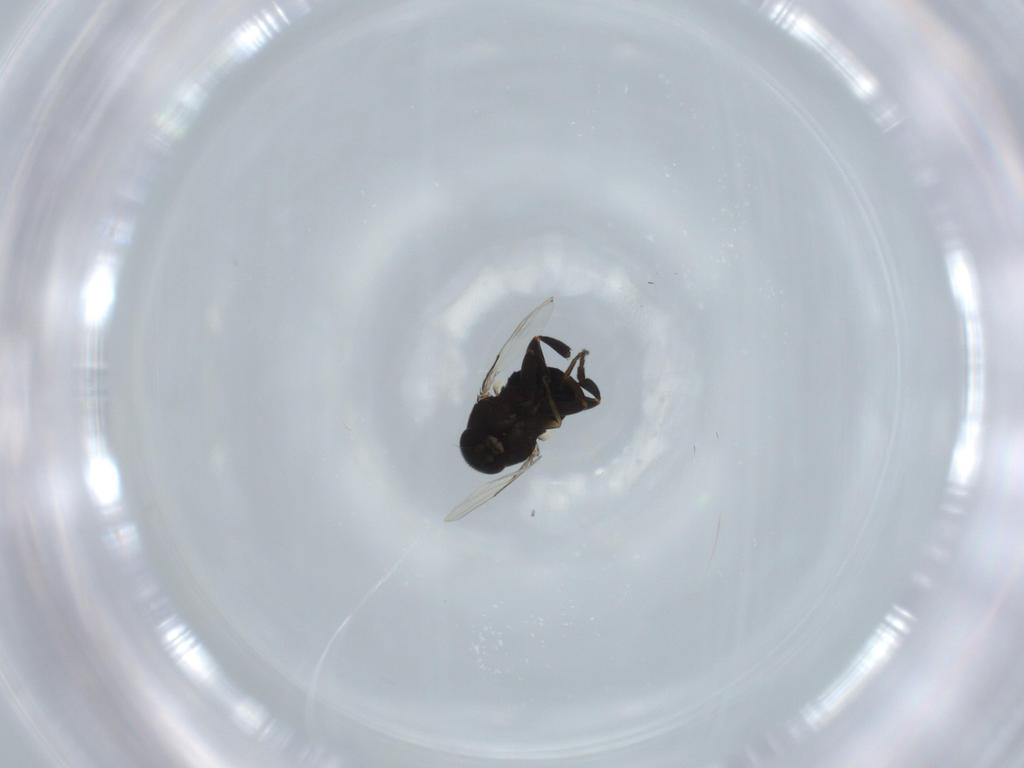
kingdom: Animalia
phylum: Arthropoda
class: Insecta
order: Diptera
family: Phoridae
